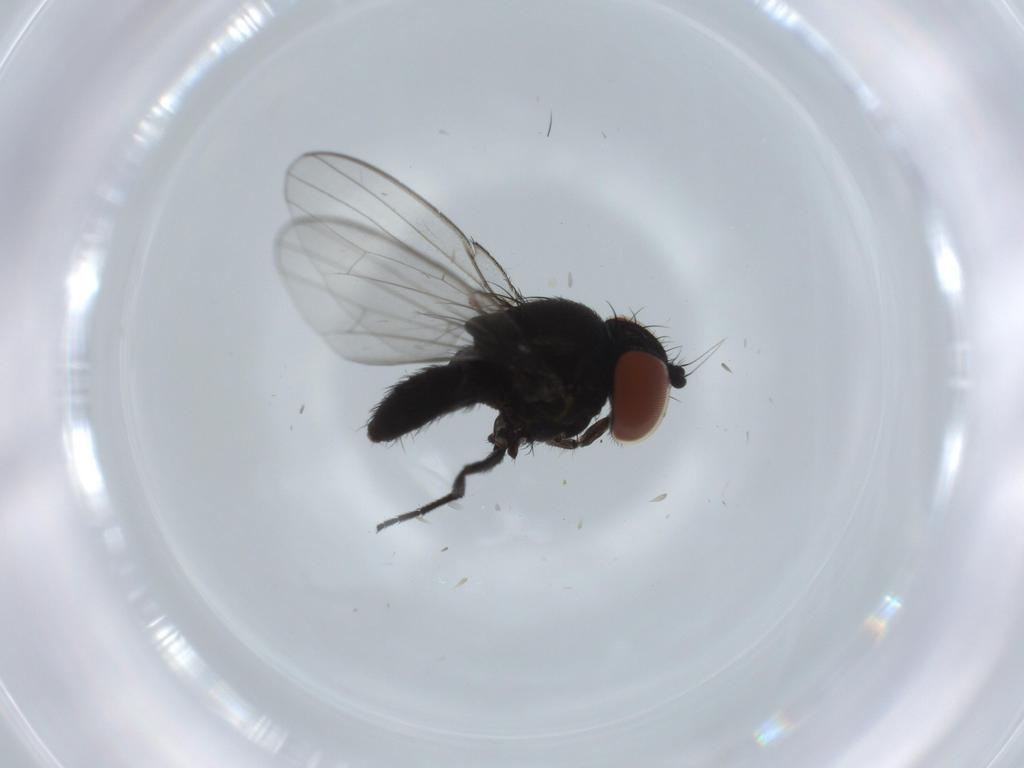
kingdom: Animalia
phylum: Arthropoda
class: Insecta
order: Diptera
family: Milichiidae
